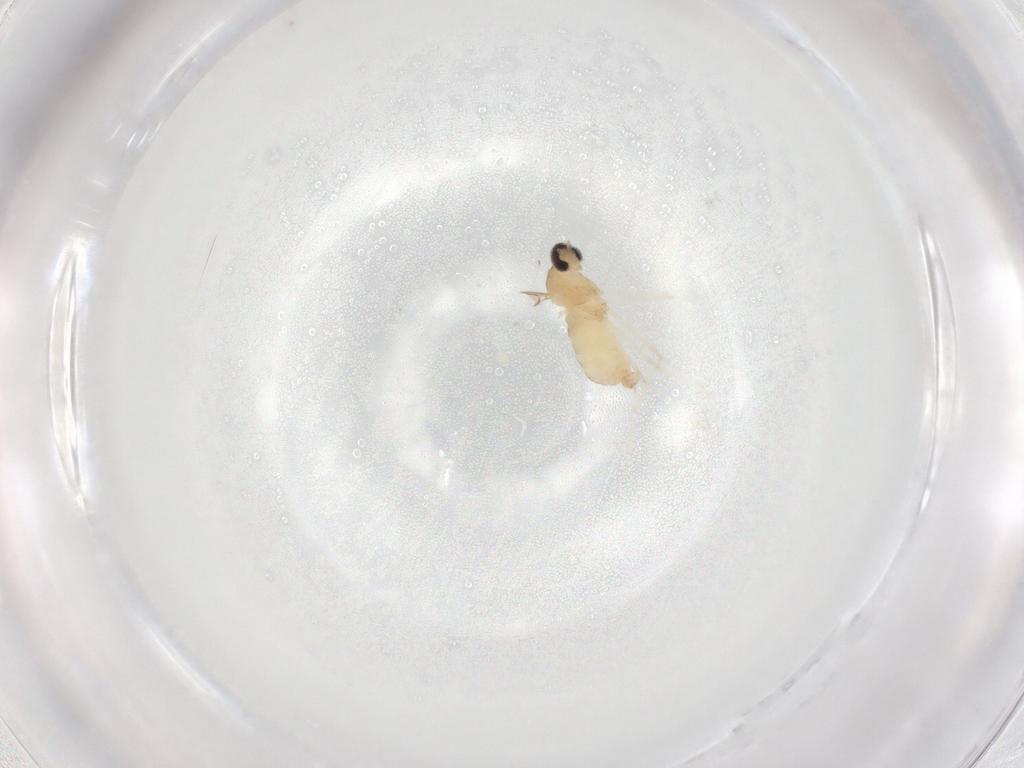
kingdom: Animalia
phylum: Arthropoda
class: Insecta
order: Diptera
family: Cecidomyiidae
